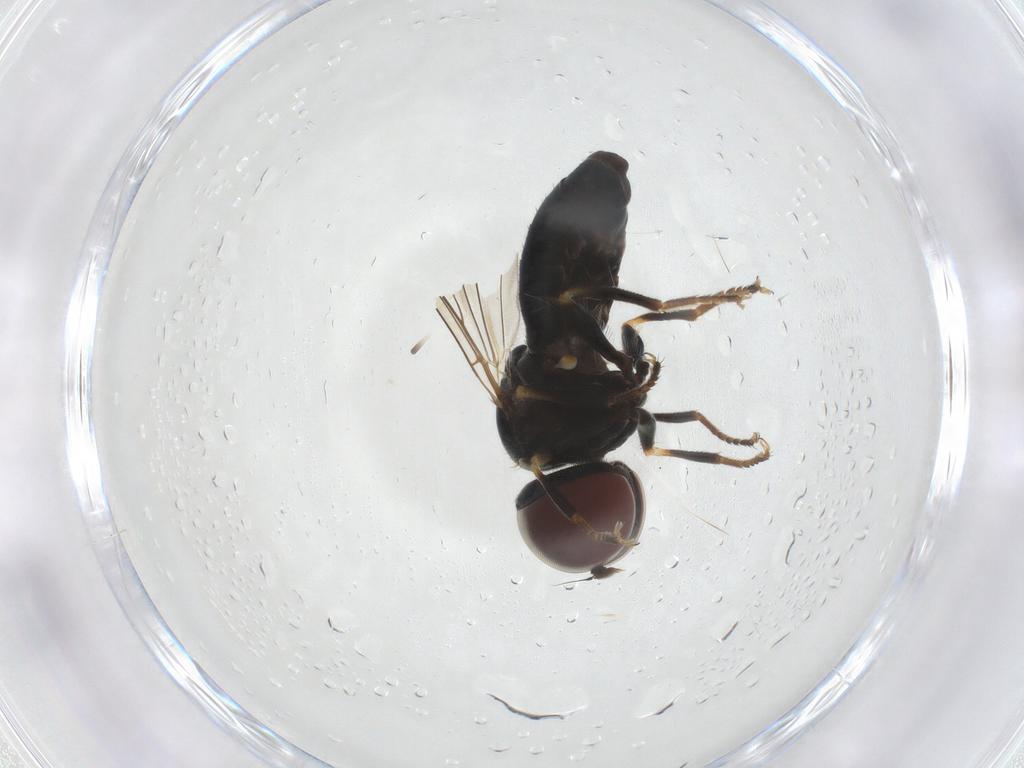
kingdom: Animalia
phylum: Arthropoda
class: Insecta
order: Diptera
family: Pipunculidae
